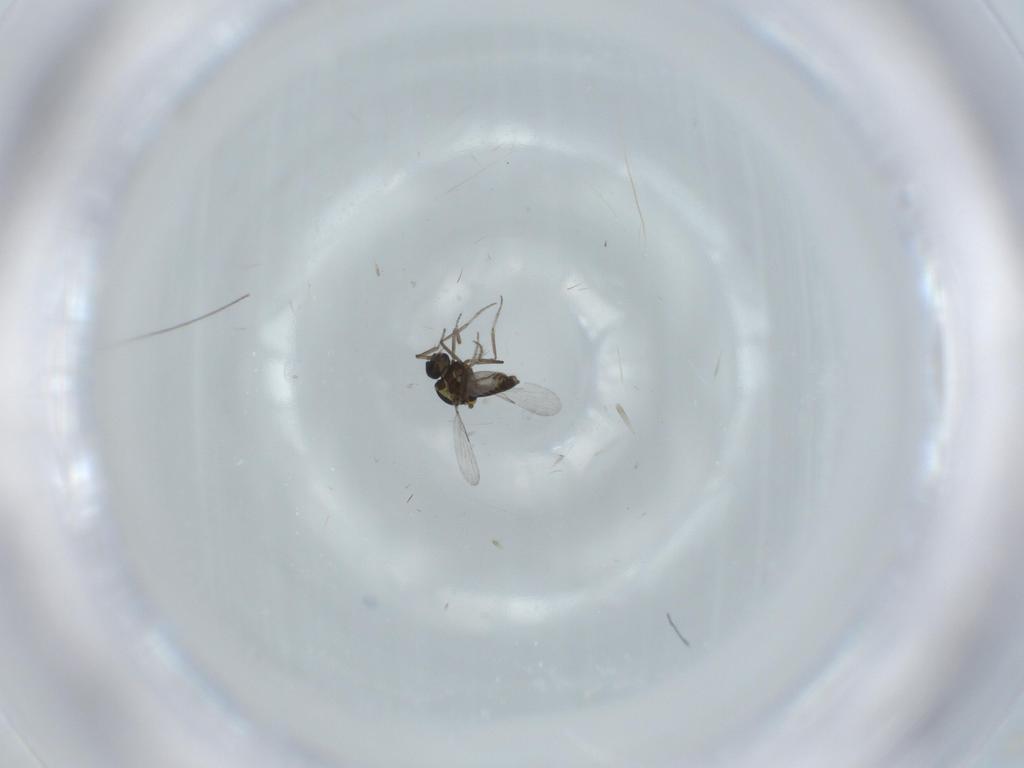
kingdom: Animalia
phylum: Arthropoda
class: Insecta
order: Diptera
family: Ceratopogonidae
